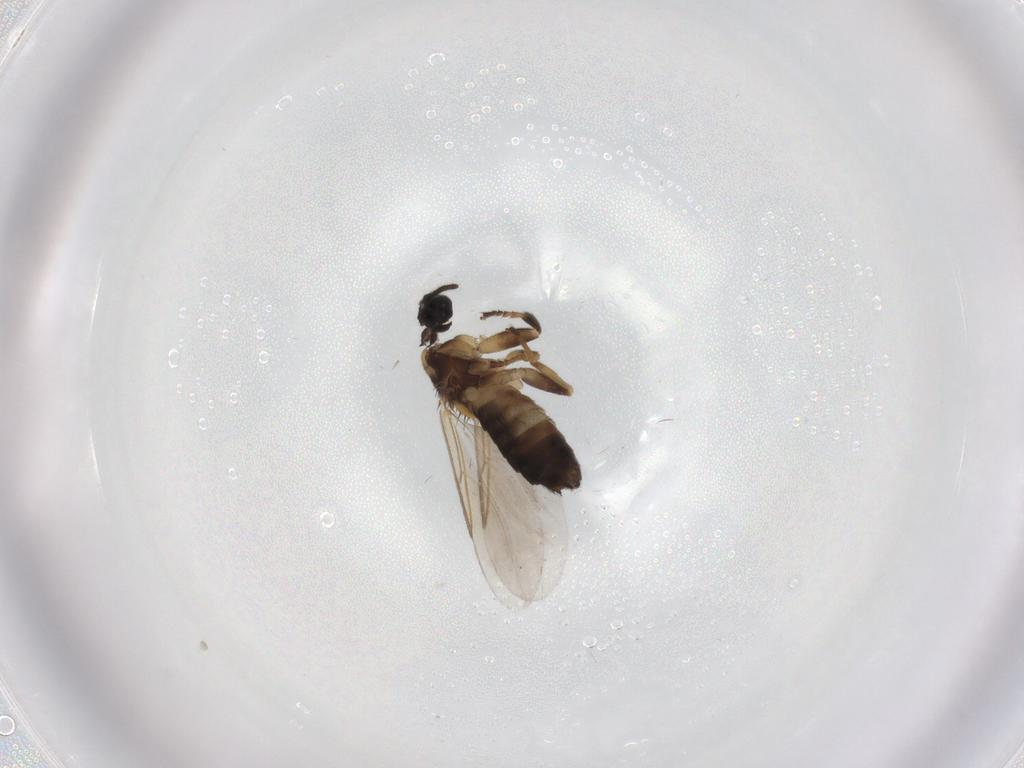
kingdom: Animalia
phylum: Arthropoda
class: Insecta
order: Diptera
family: Scatopsidae
